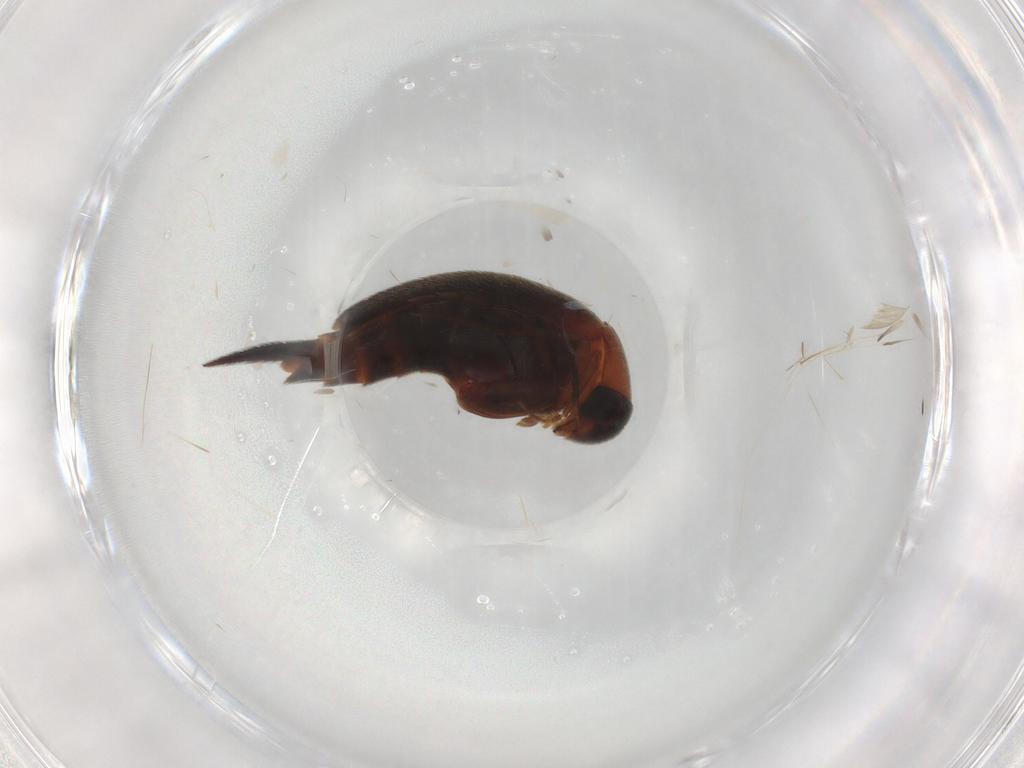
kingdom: Animalia
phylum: Arthropoda
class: Insecta
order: Coleoptera
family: Mordellidae
